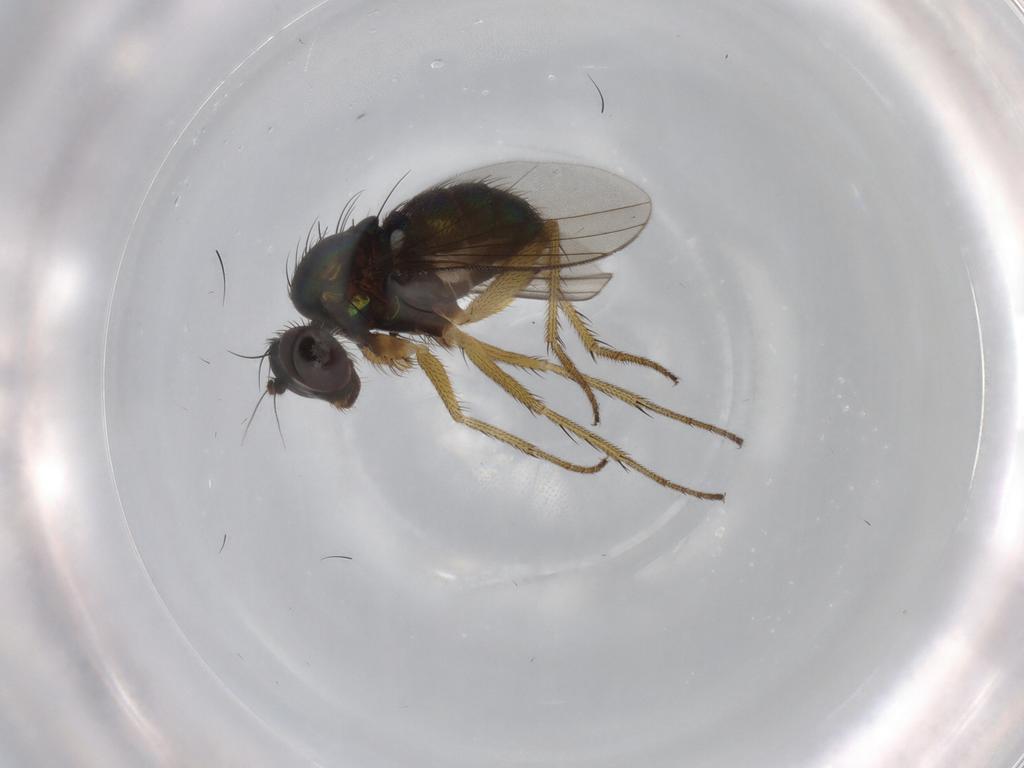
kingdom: Animalia
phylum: Arthropoda
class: Insecta
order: Diptera
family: Dolichopodidae
